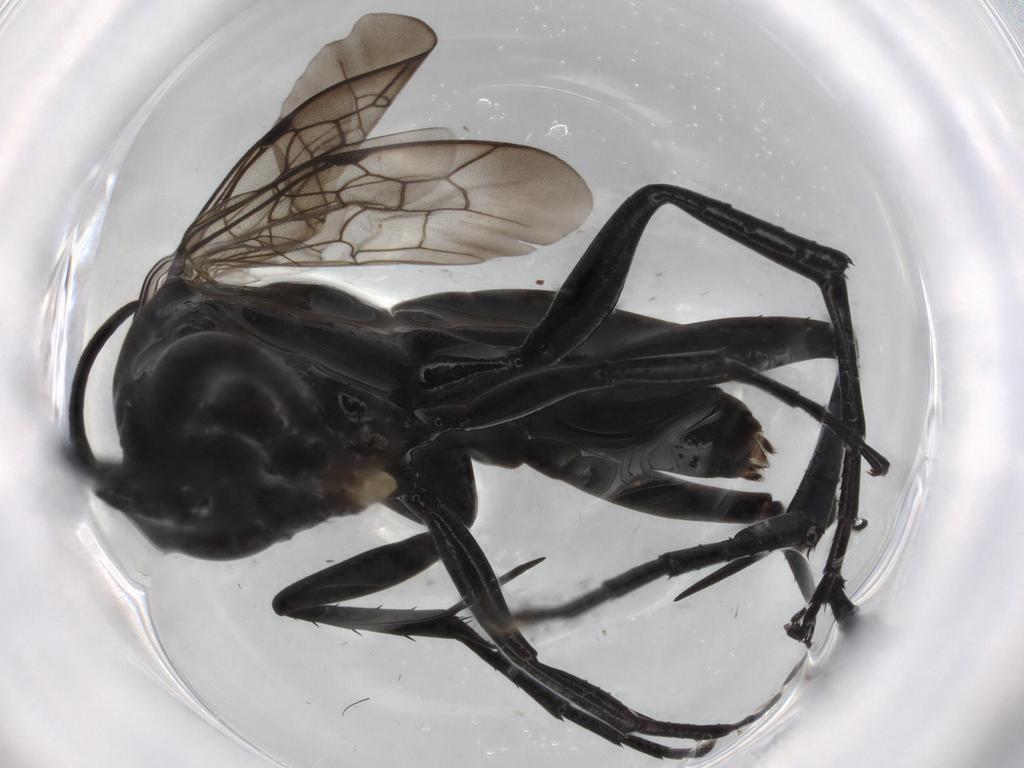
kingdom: Animalia
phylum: Arthropoda
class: Insecta
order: Hymenoptera
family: Pompilidae
